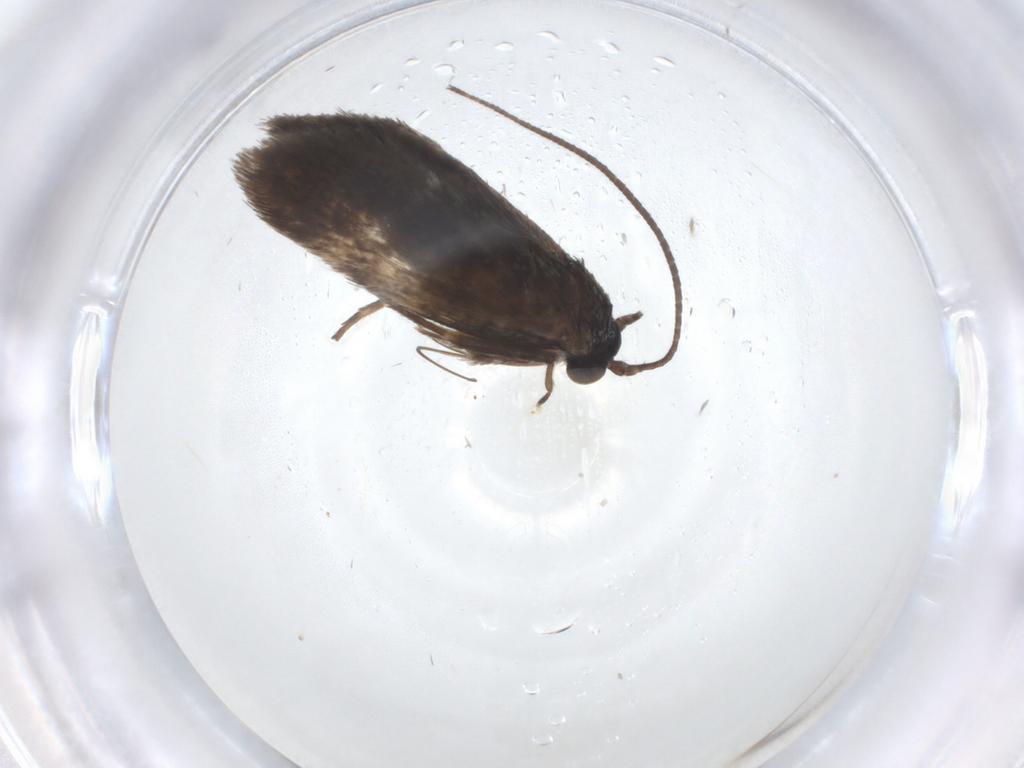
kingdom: Animalia
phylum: Arthropoda
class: Insecta
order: Lepidoptera
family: Adelidae
